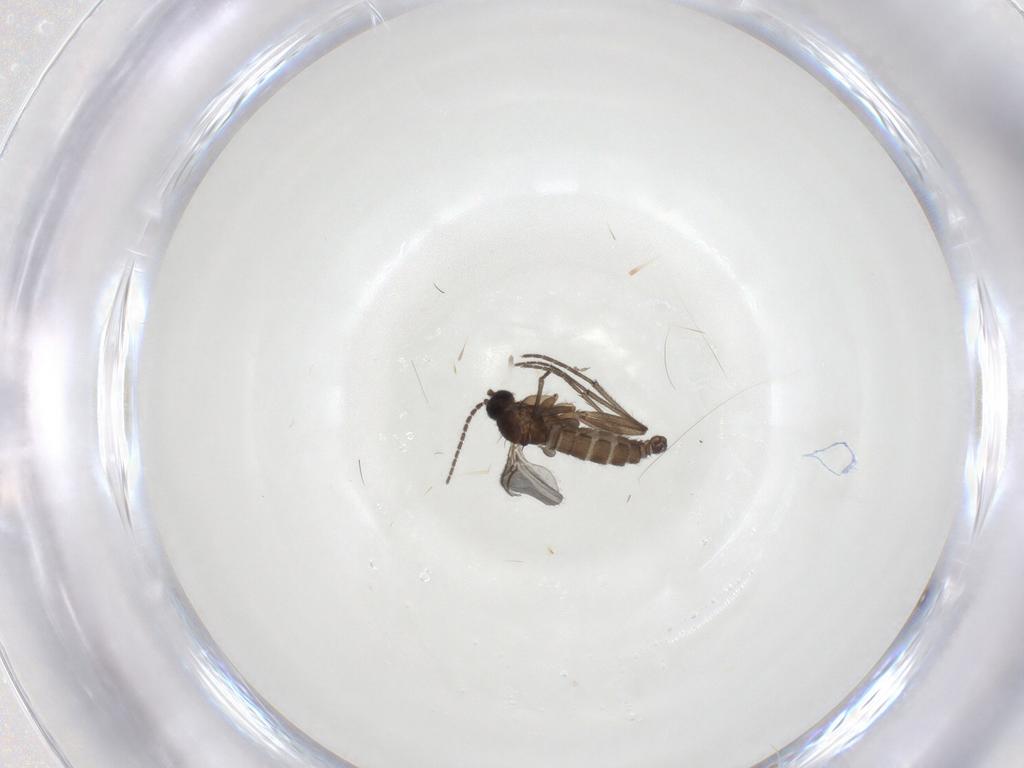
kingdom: Animalia
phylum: Arthropoda
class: Insecta
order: Diptera
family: Sciaridae
